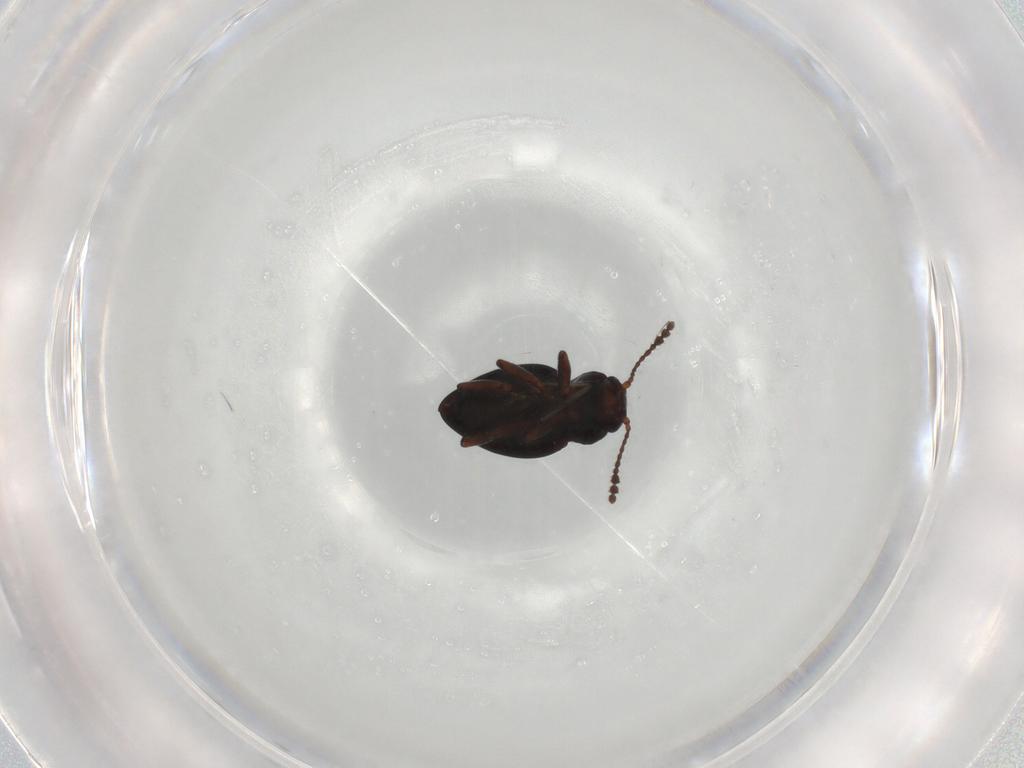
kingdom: Animalia
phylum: Arthropoda
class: Insecta
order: Coleoptera
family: Erotylidae
